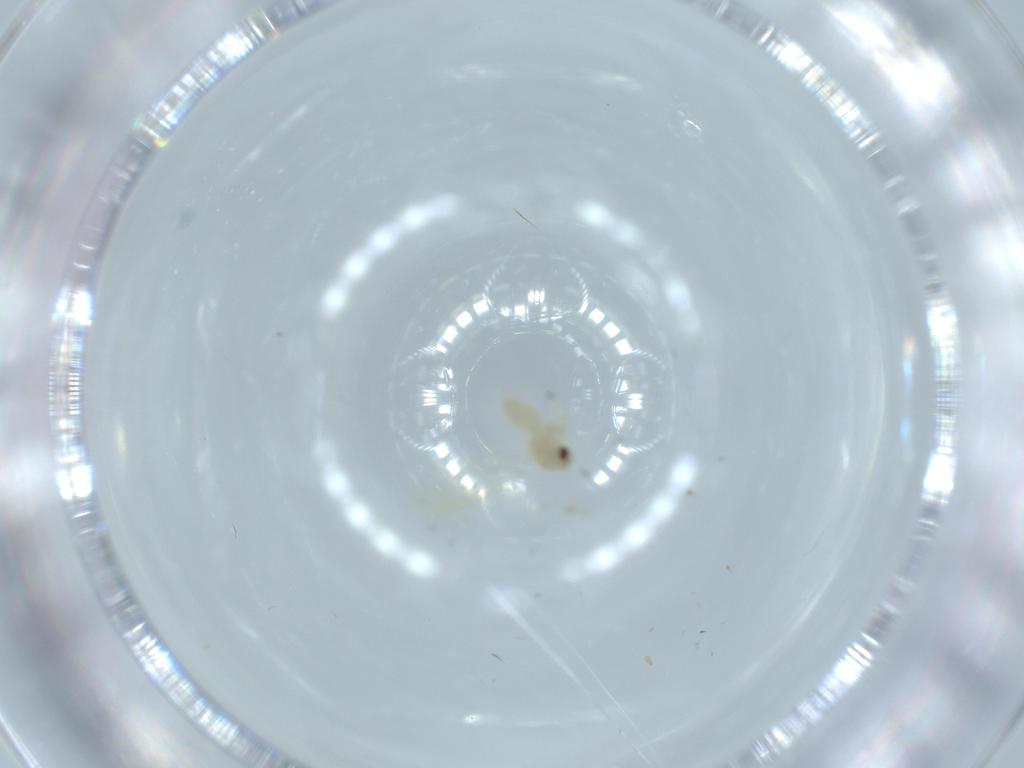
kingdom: Animalia
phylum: Arthropoda
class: Insecta
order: Hemiptera
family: Aleyrodidae
